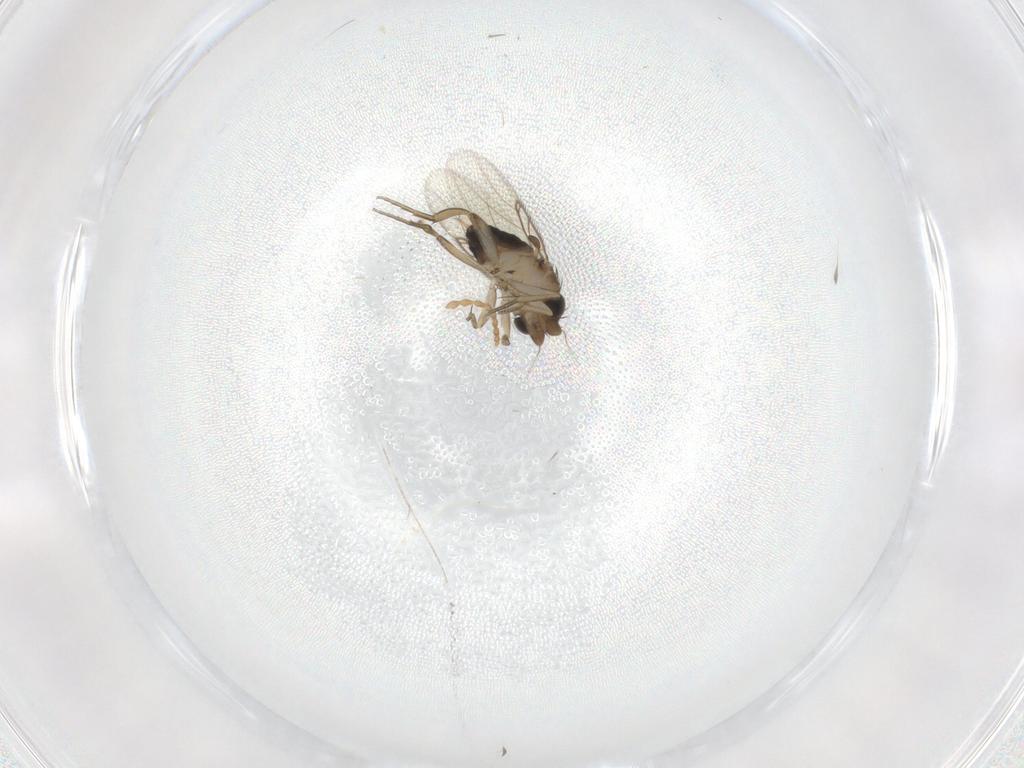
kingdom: Animalia
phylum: Arthropoda
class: Insecta
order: Diptera
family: Phoridae
